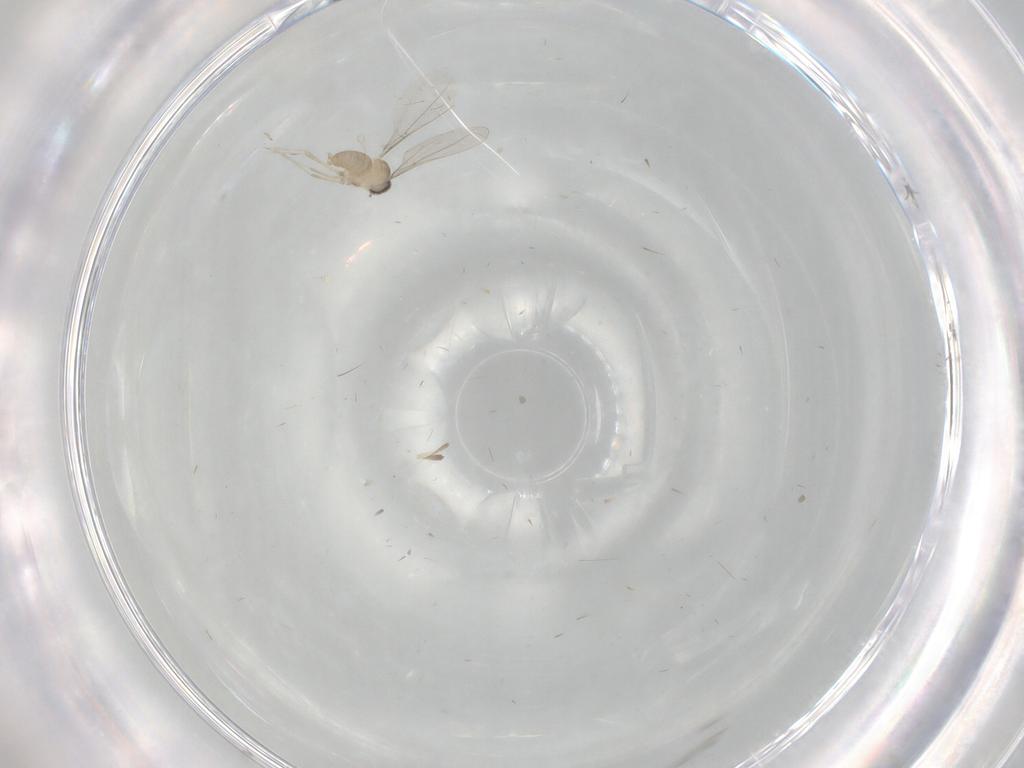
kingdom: Animalia
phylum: Arthropoda
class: Insecta
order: Diptera
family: Cecidomyiidae
